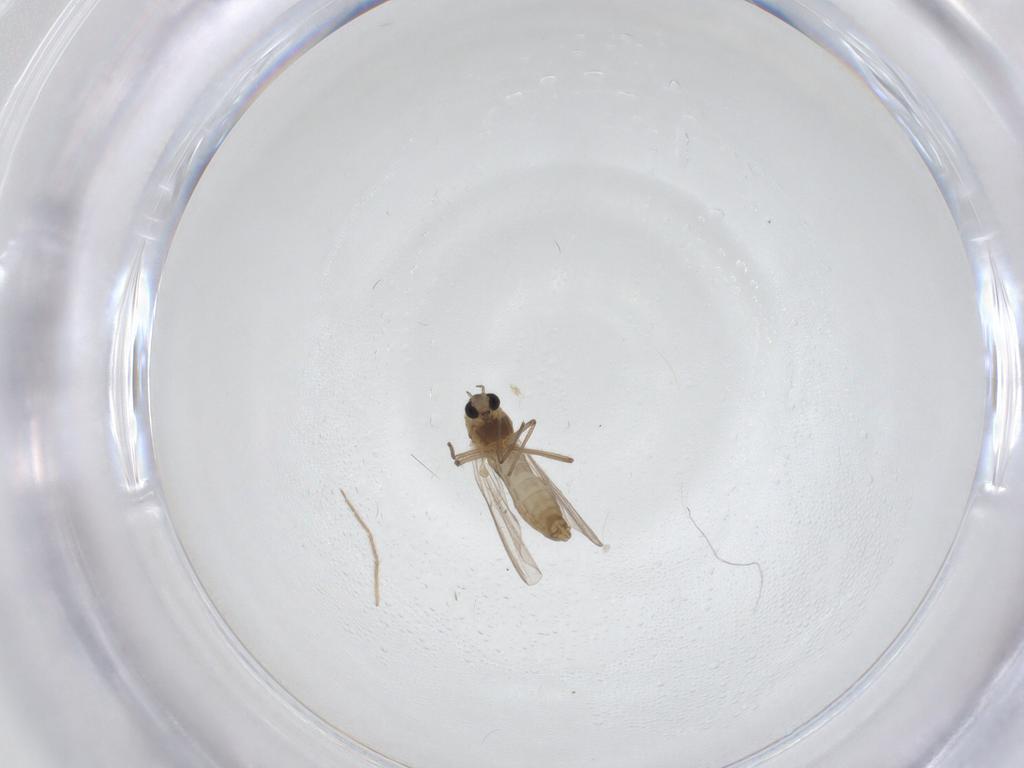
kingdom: Animalia
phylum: Arthropoda
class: Insecta
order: Diptera
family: Chironomidae
